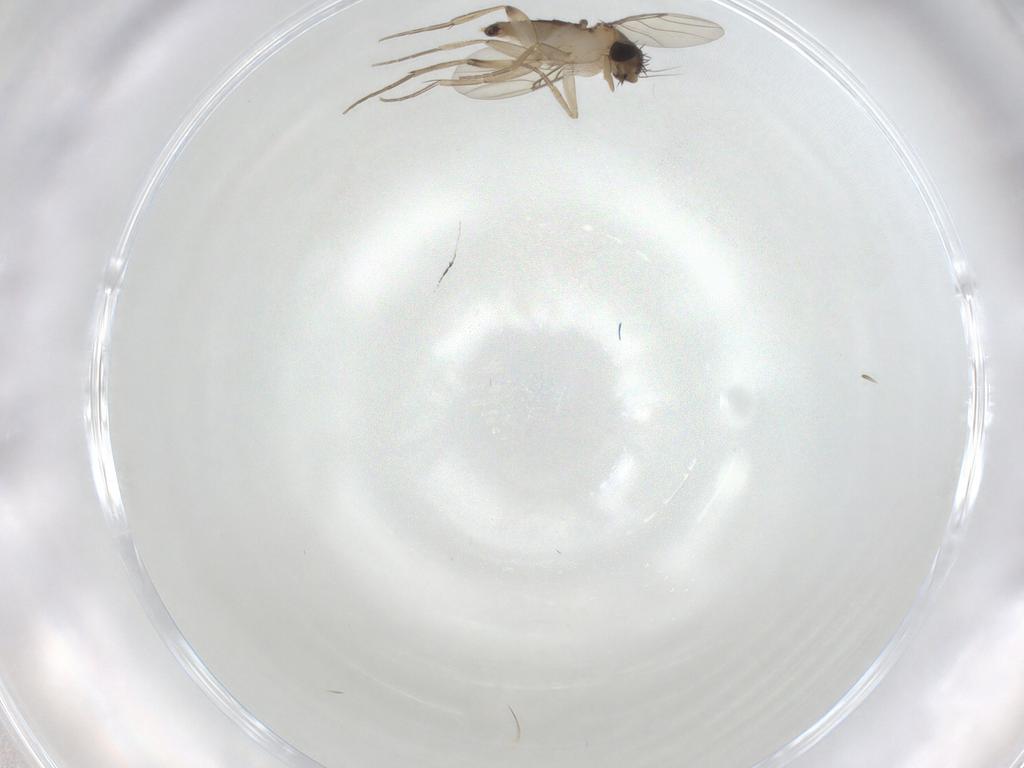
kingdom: Animalia
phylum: Arthropoda
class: Insecta
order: Diptera
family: Phoridae
